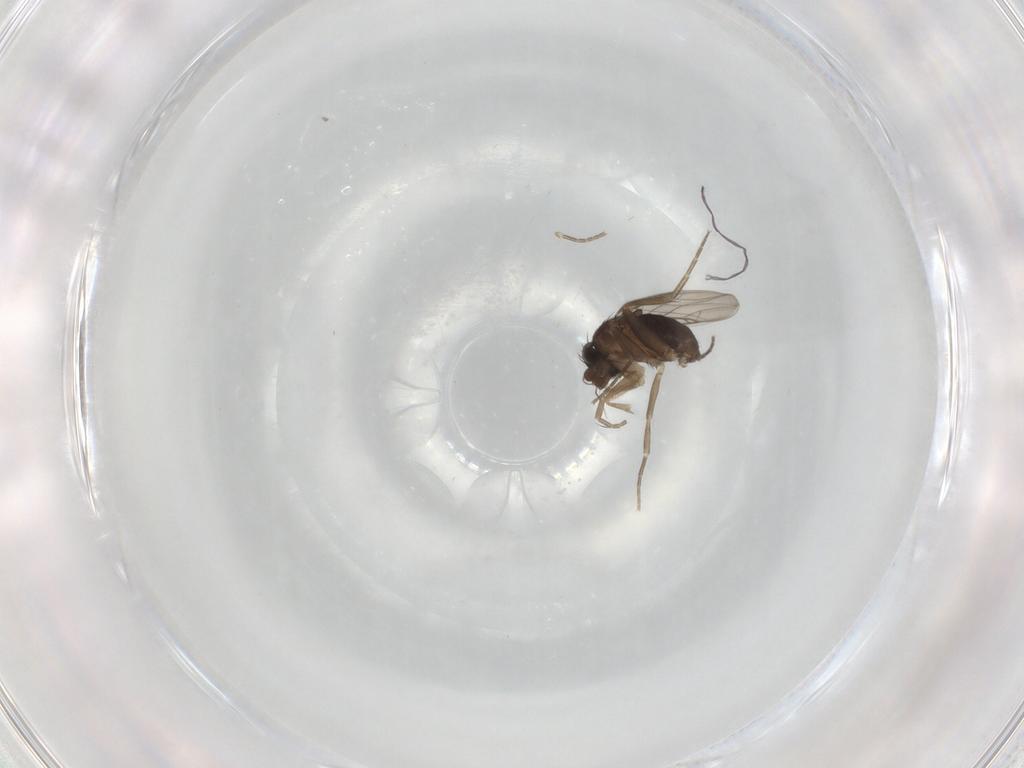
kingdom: Animalia
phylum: Arthropoda
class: Insecta
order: Diptera
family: Phoridae
